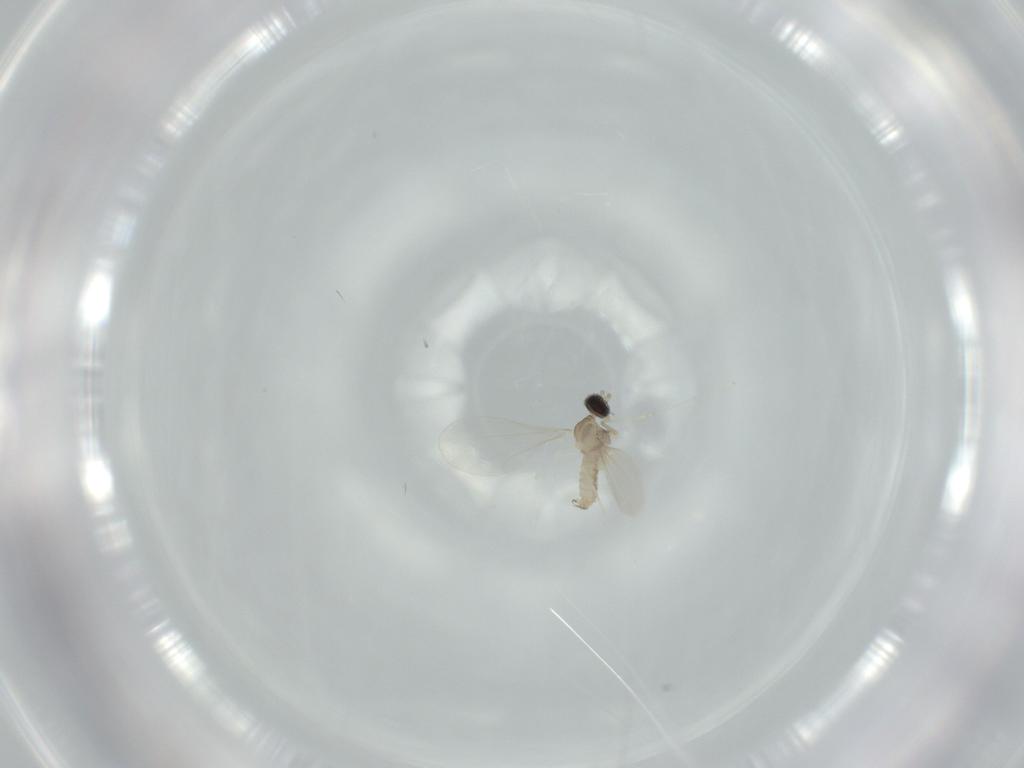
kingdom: Animalia
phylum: Arthropoda
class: Insecta
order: Diptera
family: Cecidomyiidae
